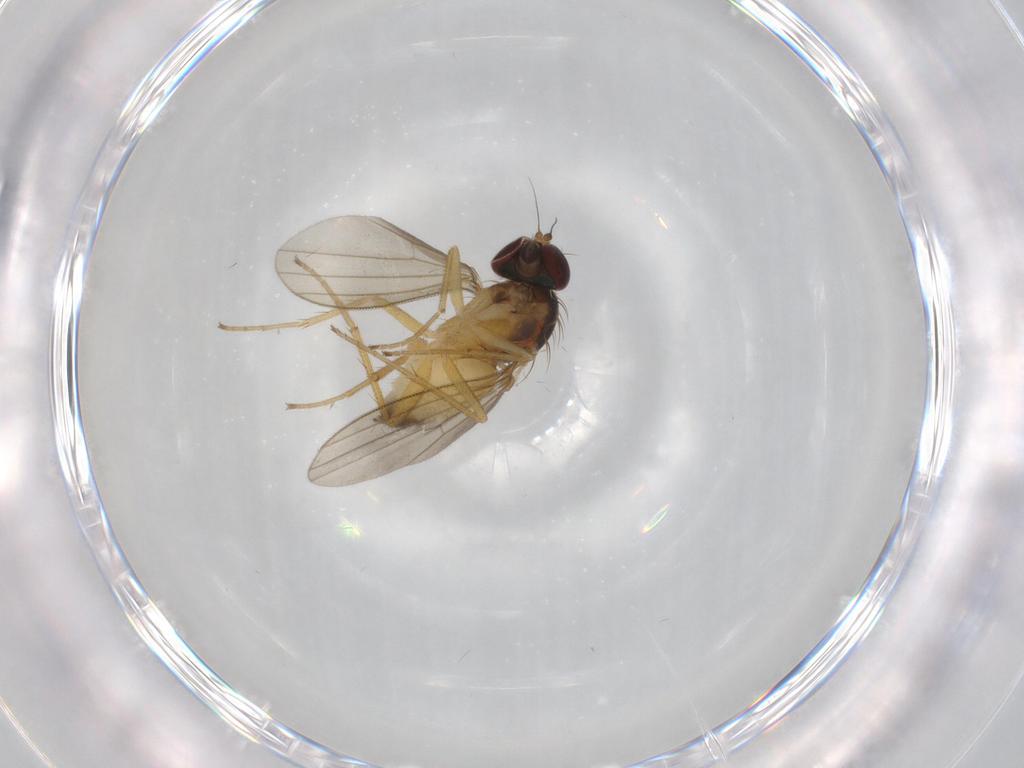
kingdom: Animalia
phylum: Arthropoda
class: Insecta
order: Diptera
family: Dolichopodidae
